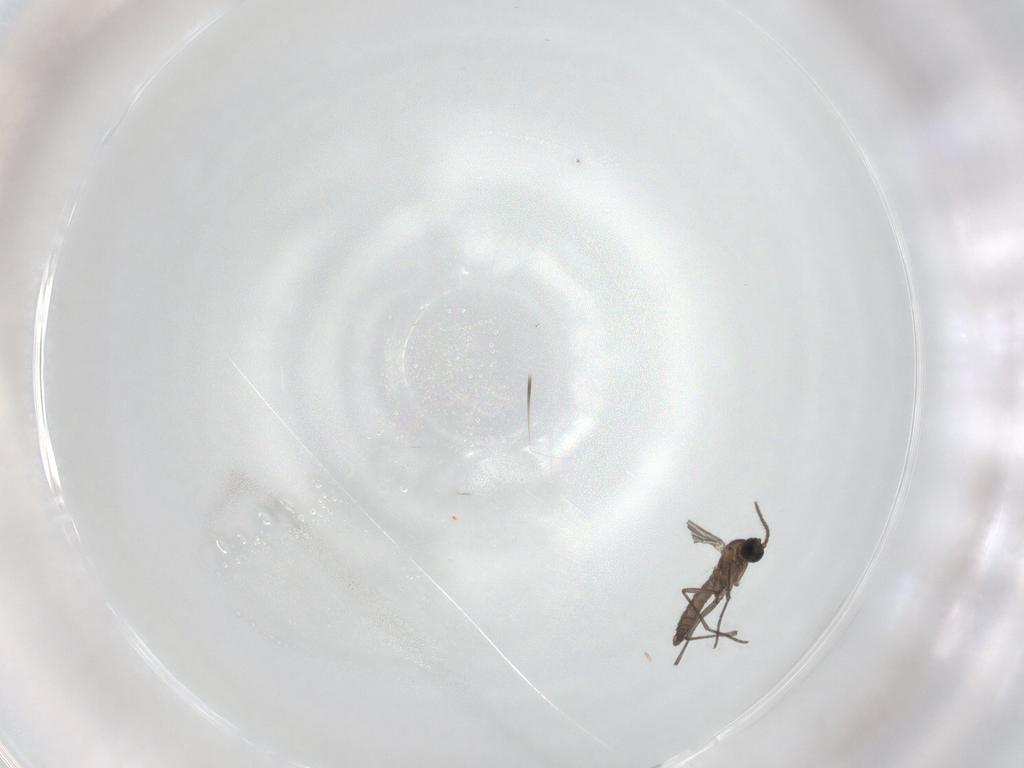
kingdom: Animalia
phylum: Arthropoda
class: Insecta
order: Diptera
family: Sciaridae
